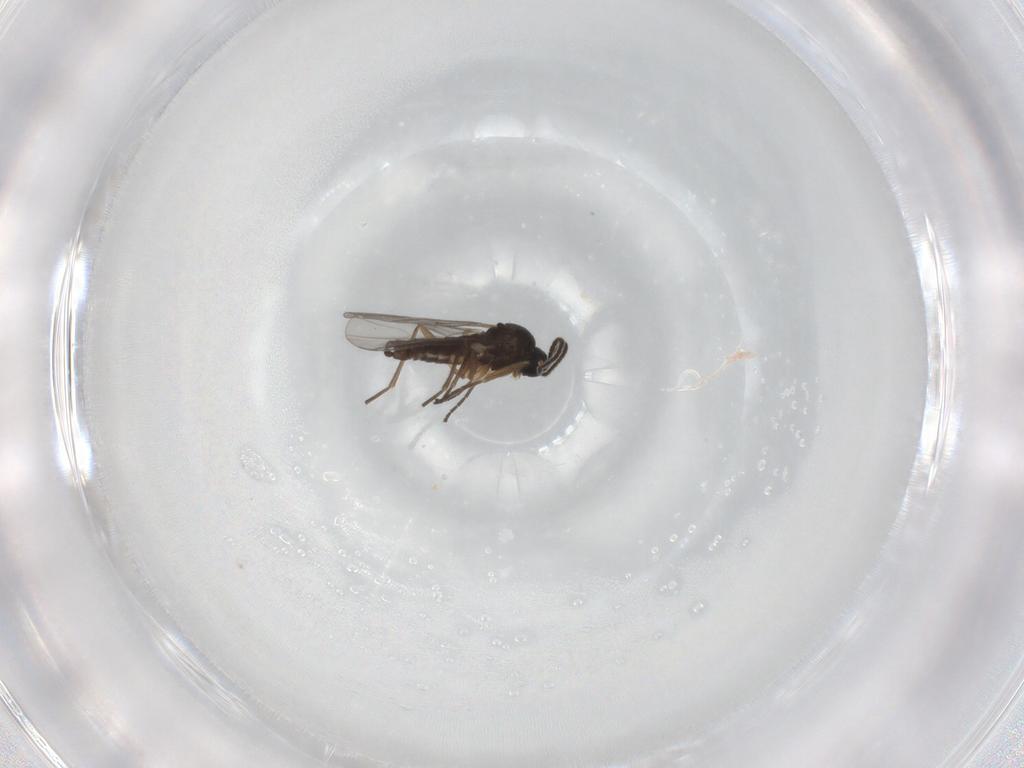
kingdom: Animalia
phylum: Arthropoda
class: Insecta
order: Diptera
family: Sciaridae
